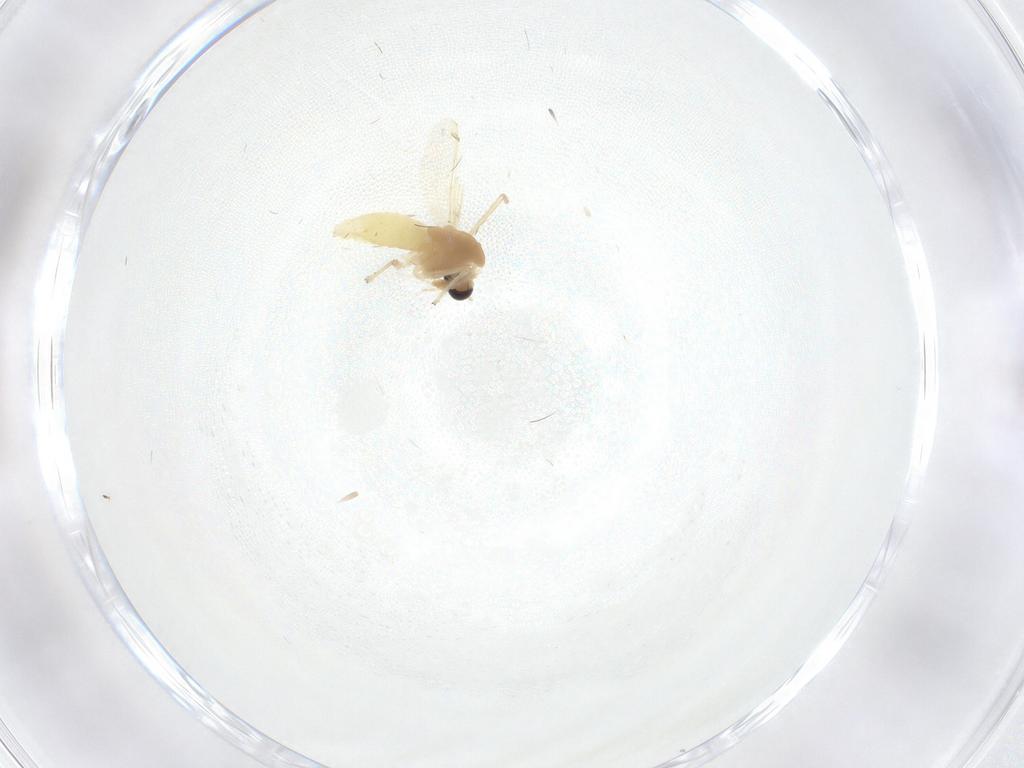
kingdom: Animalia
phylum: Arthropoda
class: Insecta
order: Diptera
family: Chironomidae
